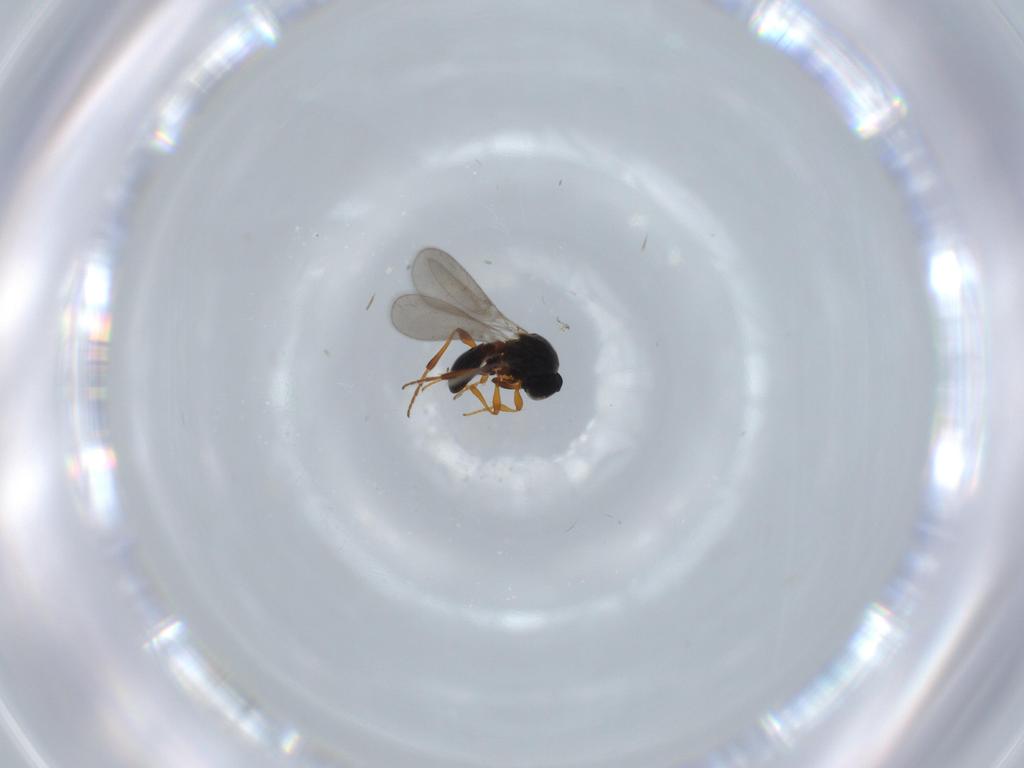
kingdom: Animalia
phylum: Arthropoda
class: Insecta
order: Hymenoptera
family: Platygastridae
